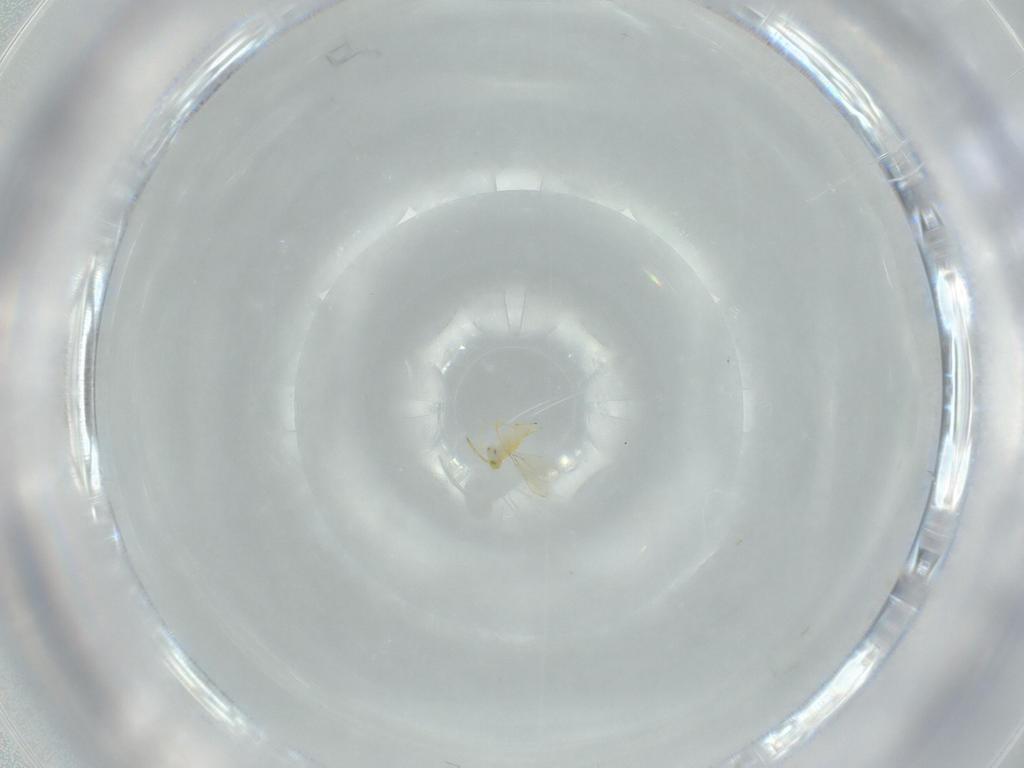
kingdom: Animalia
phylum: Arthropoda
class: Insecta
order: Hymenoptera
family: Aphelinidae
